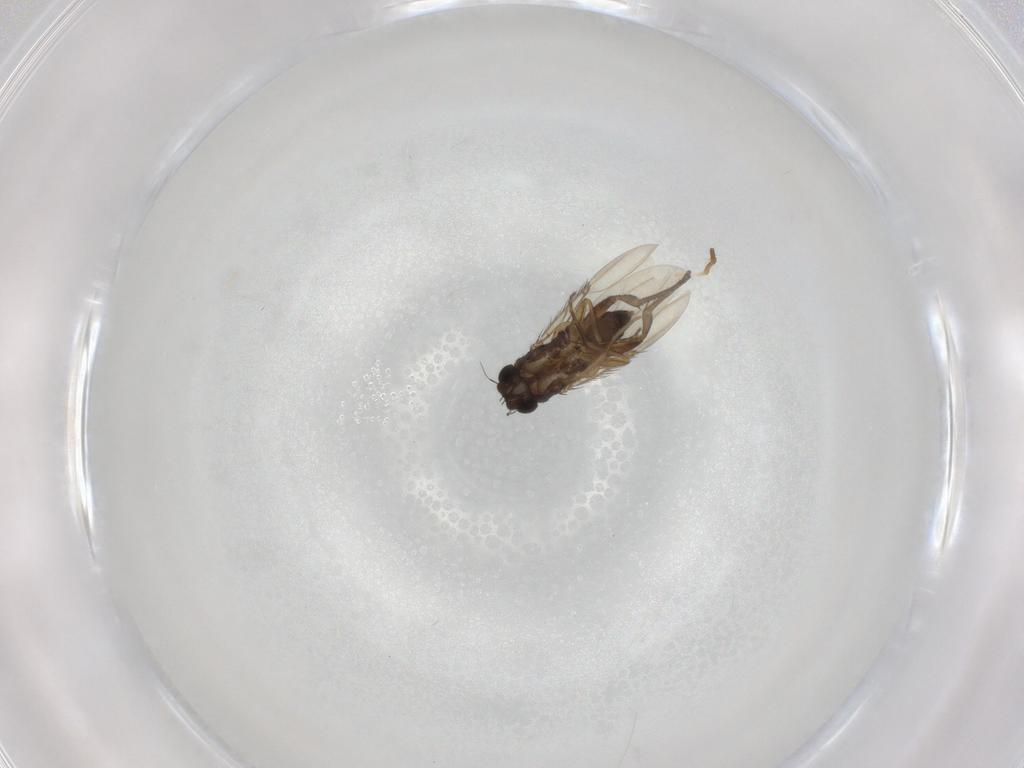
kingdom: Animalia
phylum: Arthropoda
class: Insecta
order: Diptera
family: Phoridae
